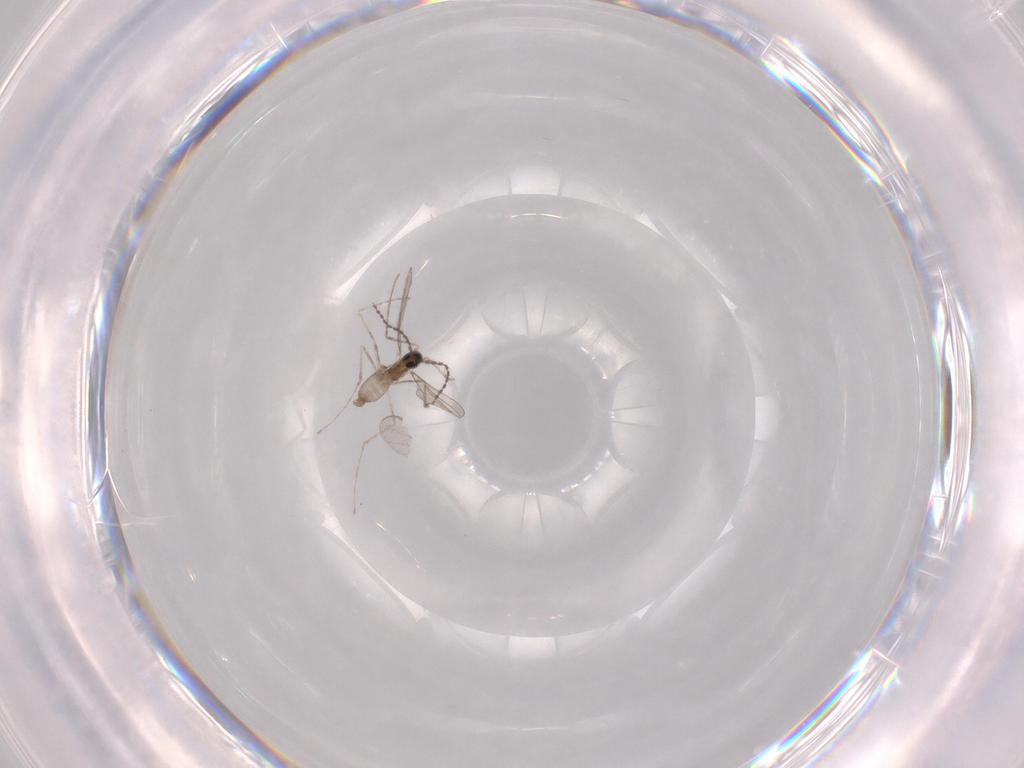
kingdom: Animalia
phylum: Arthropoda
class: Insecta
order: Diptera
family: Chironomidae
